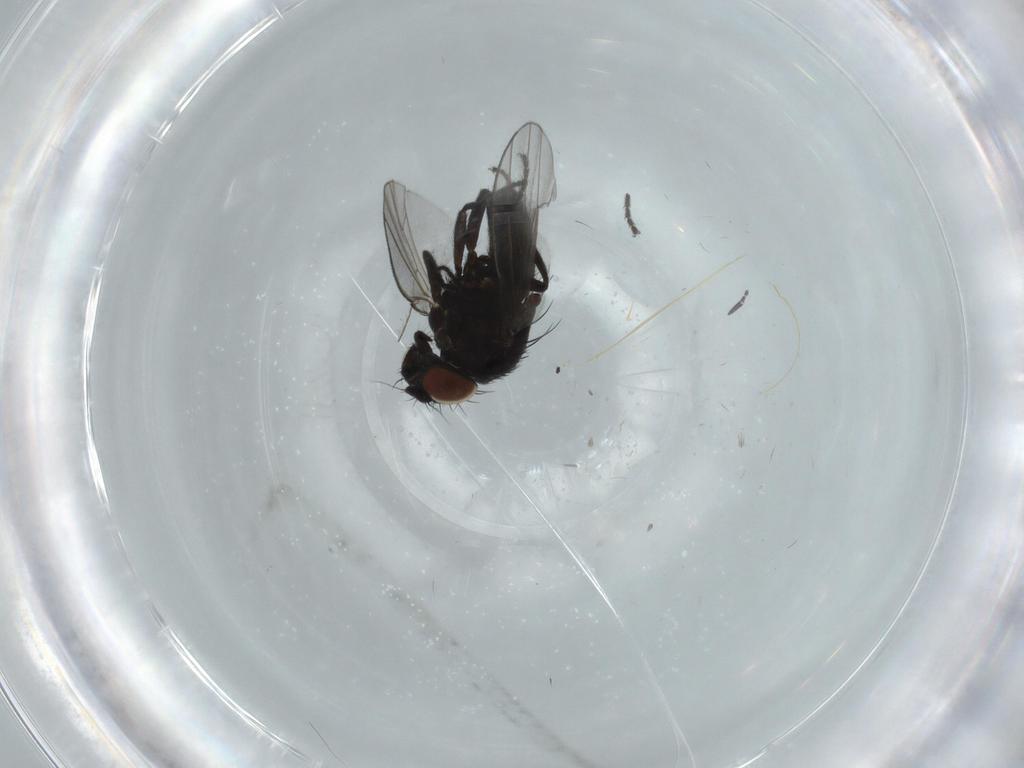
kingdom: Animalia
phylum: Arthropoda
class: Insecta
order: Diptera
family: Milichiidae
